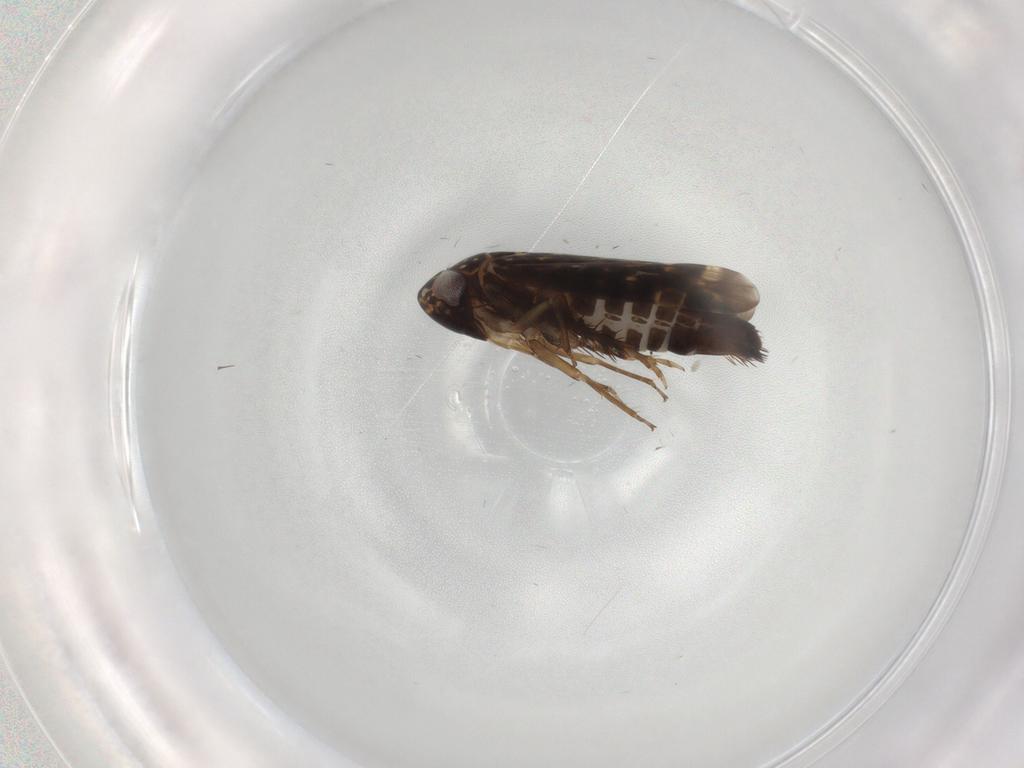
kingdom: Animalia
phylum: Arthropoda
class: Insecta
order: Hemiptera
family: Cicadellidae
